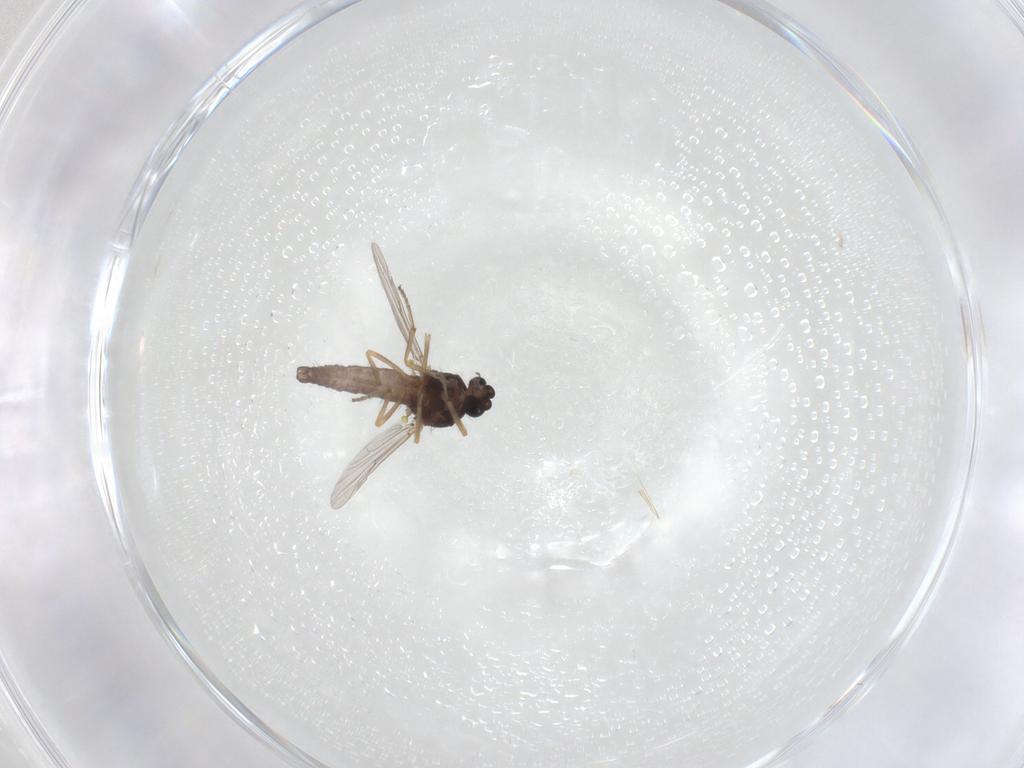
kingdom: Animalia
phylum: Arthropoda
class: Insecta
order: Diptera
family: Ceratopogonidae
